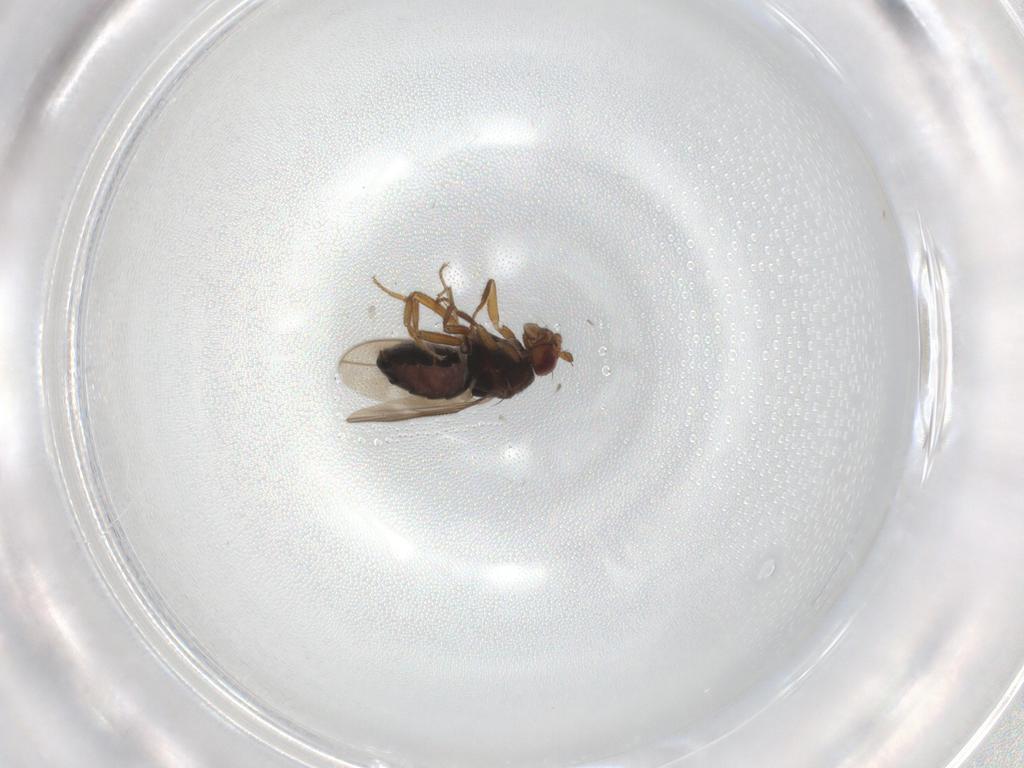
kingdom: Animalia
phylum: Arthropoda
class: Insecta
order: Diptera
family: Sphaeroceridae
